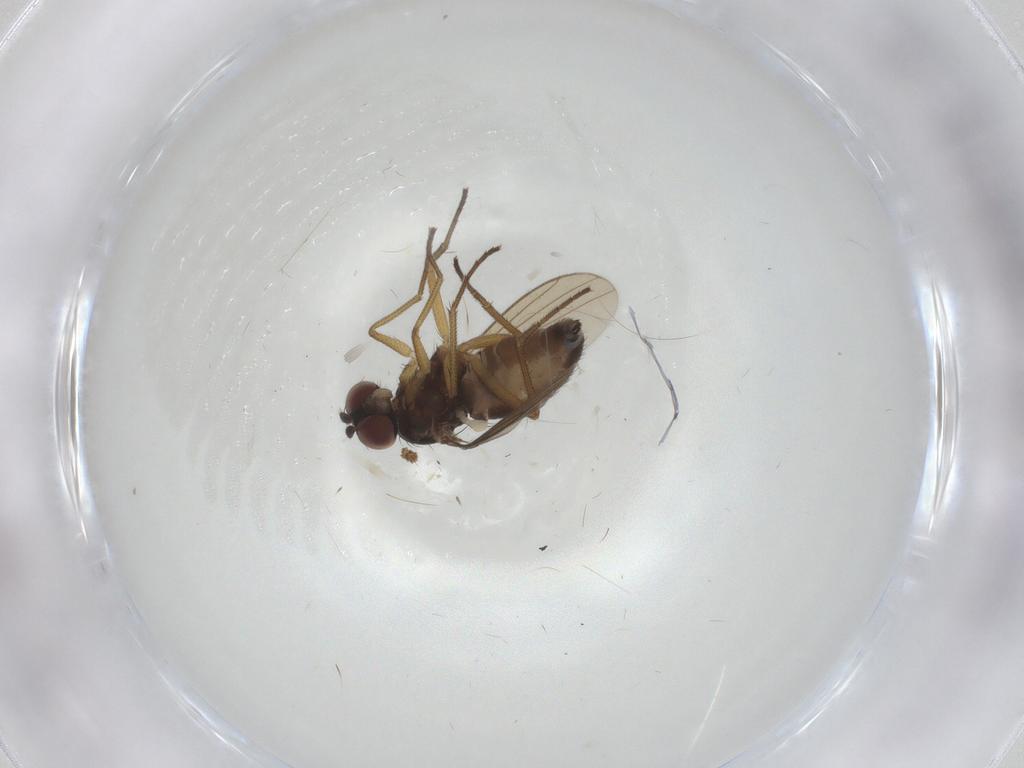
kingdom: Animalia
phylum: Arthropoda
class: Insecta
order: Diptera
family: Dolichopodidae
